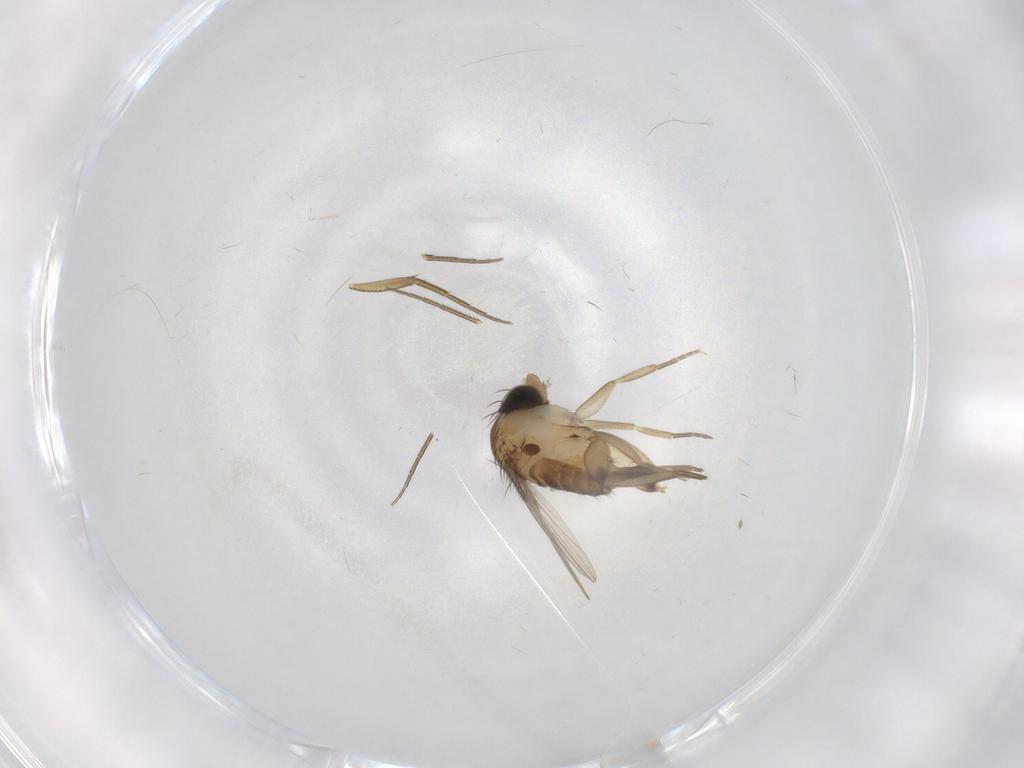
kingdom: Animalia
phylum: Arthropoda
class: Insecta
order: Diptera
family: Phoridae
